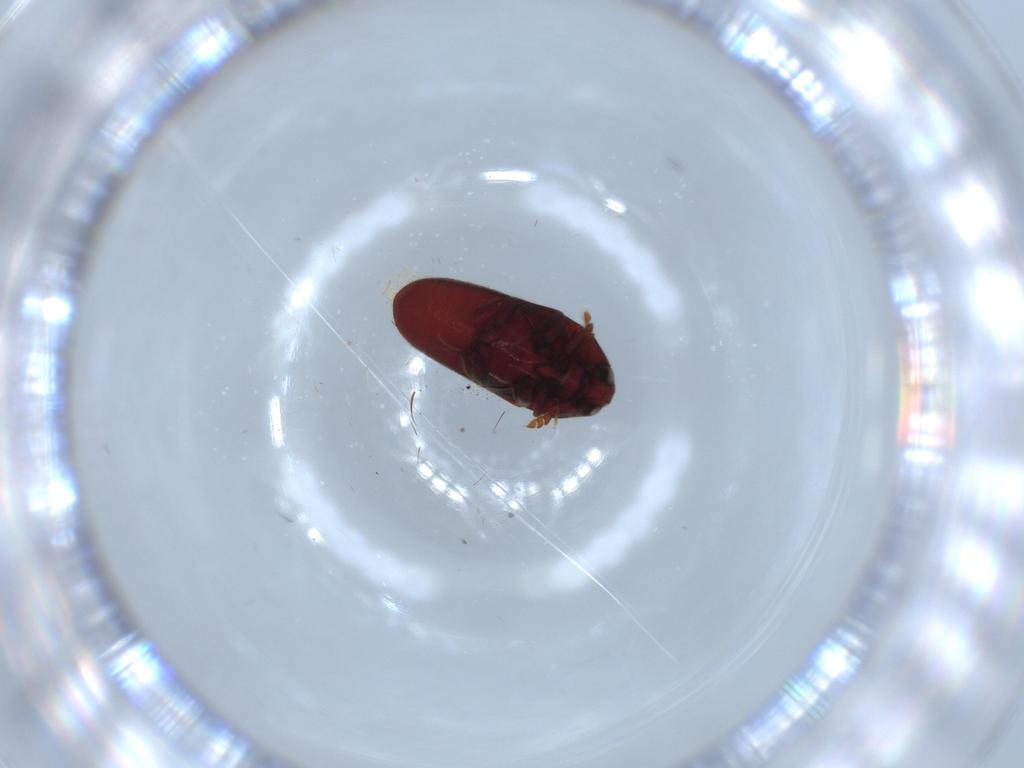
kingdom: Animalia
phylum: Arthropoda
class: Insecta
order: Coleoptera
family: Throscidae
